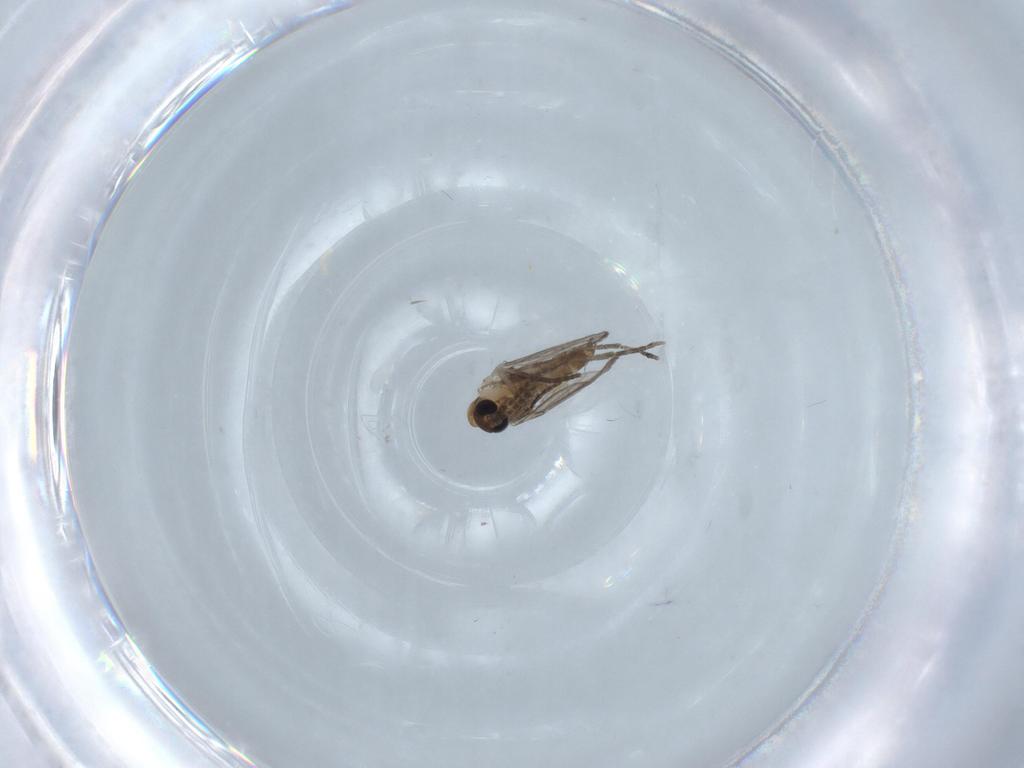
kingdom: Animalia
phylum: Arthropoda
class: Insecta
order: Diptera
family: Psychodidae
